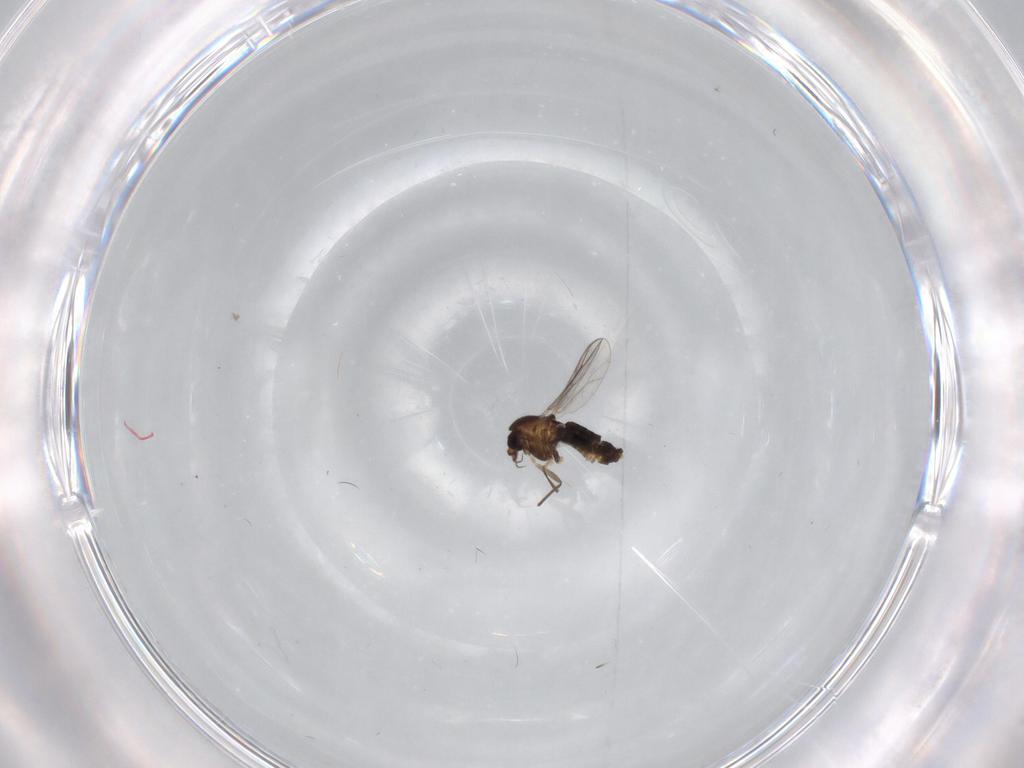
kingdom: Animalia
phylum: Arthropoda
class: Insecta
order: Diptera
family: Chironomidae
